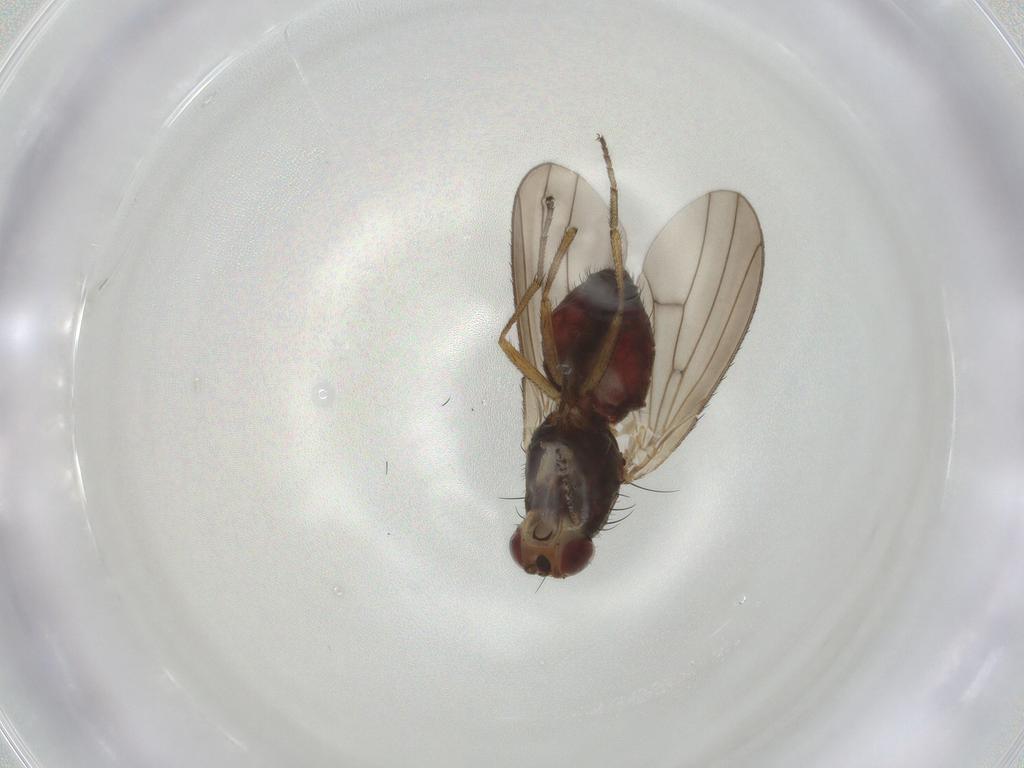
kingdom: Animalia
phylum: Arthropoda
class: Insecta
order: Diptera
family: Heleomyzidae
